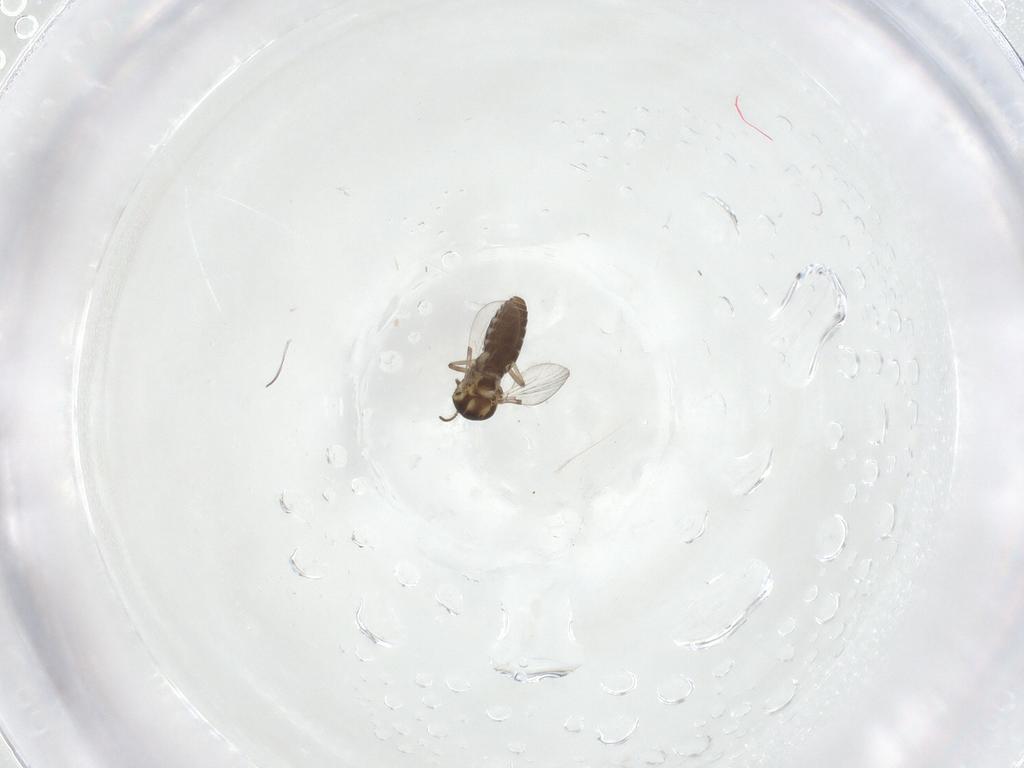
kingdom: Animalia
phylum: Arthropoda
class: Insecta
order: Diptera
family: Ceratopogonidae
